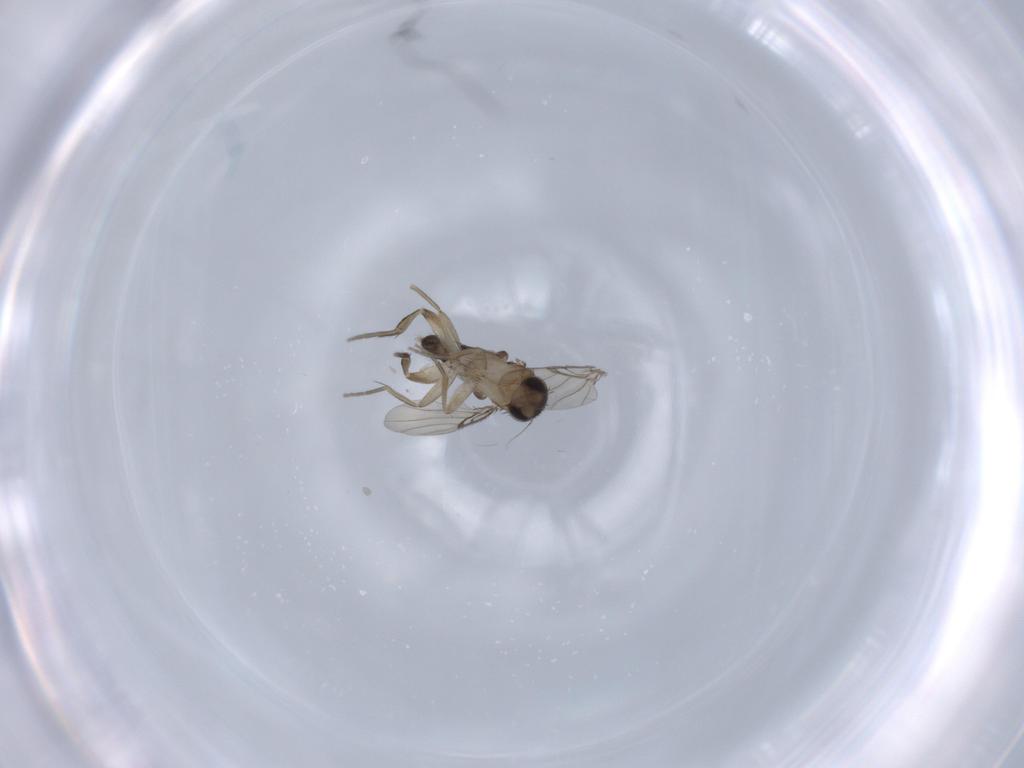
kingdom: Animalia
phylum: Arthropoda
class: Insecta
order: Diptera
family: Phoridae
